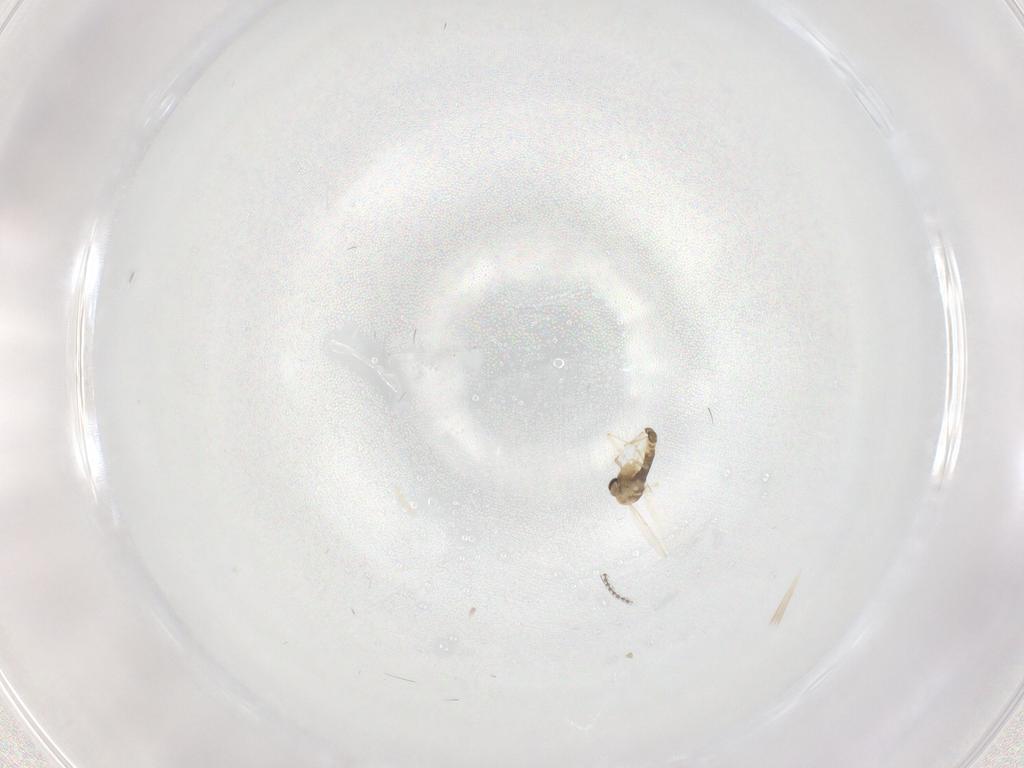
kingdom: Animalia
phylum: Arthropoda
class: Insecta
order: Diptera
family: Sciaridae
